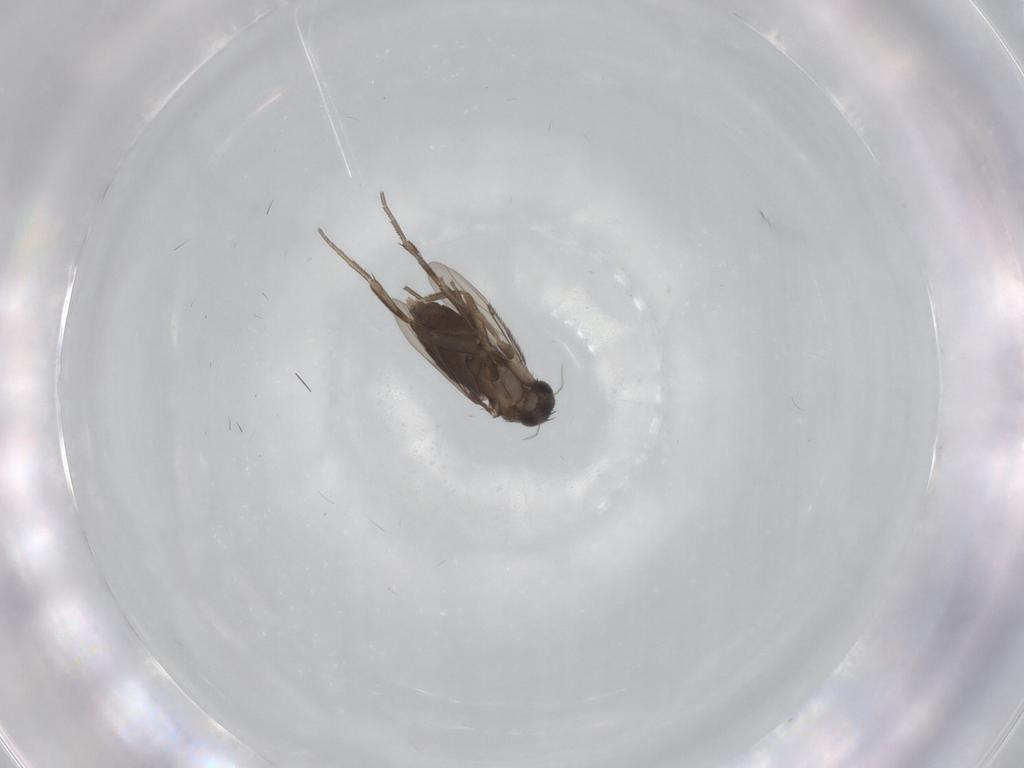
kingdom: Animalia
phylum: Arthropoda
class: Insecta
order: Diptera
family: Phoridae
